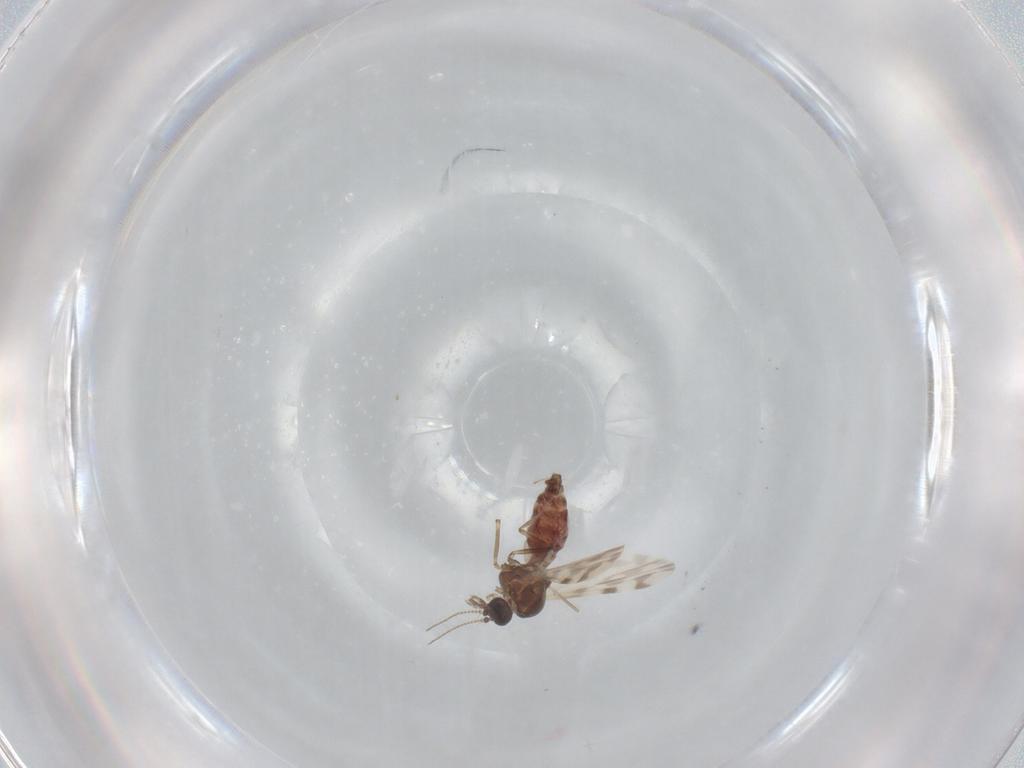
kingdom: Animalia
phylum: Arthropoda
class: Insecta
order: Diptera
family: Ceratopogonidae
